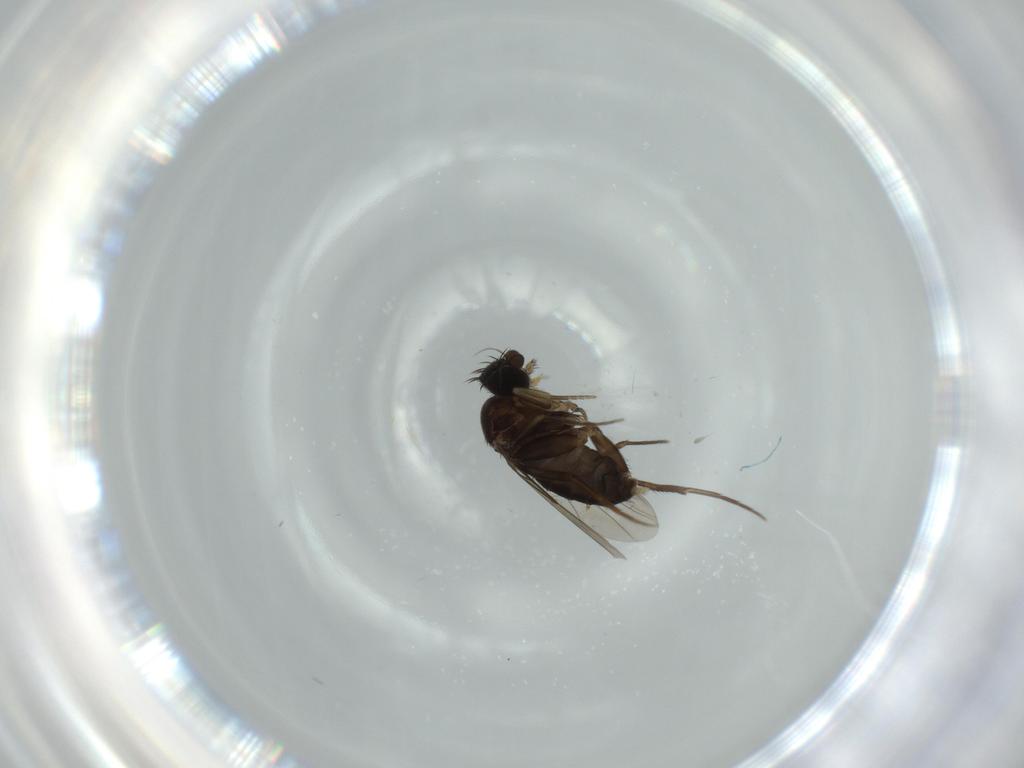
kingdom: Animalia
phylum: Arthropoda
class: Insecta
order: Diptera
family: Phoridae
